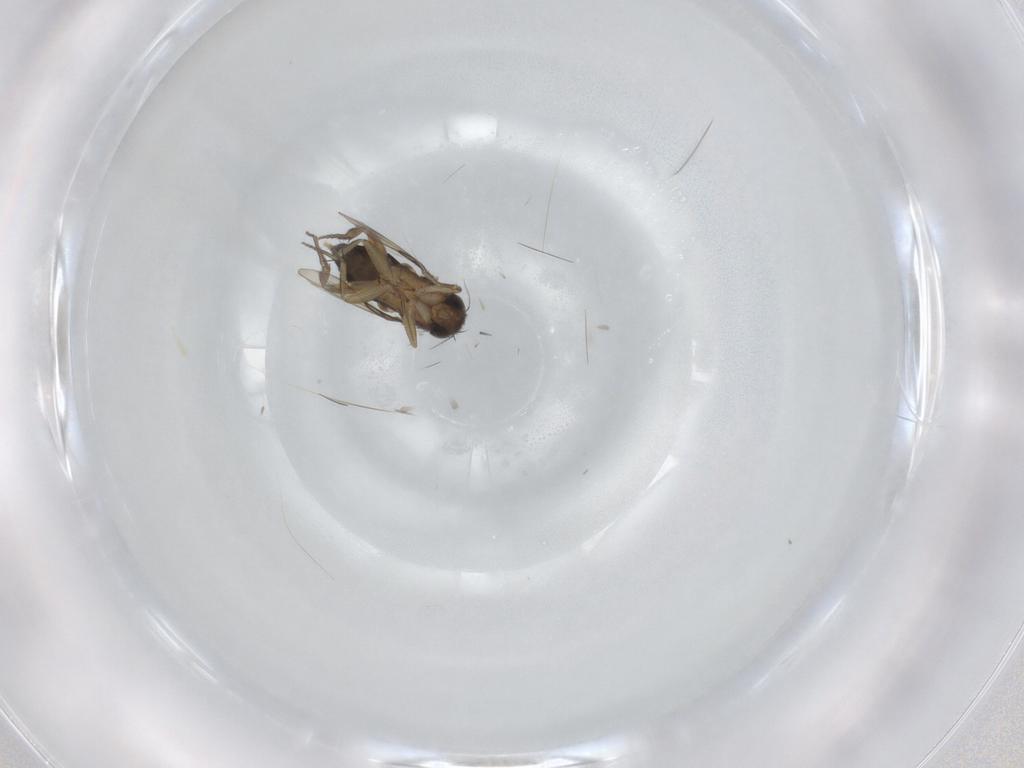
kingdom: Animalia
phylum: Arthropoda
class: Insecta
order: Diptera
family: Phoridae
